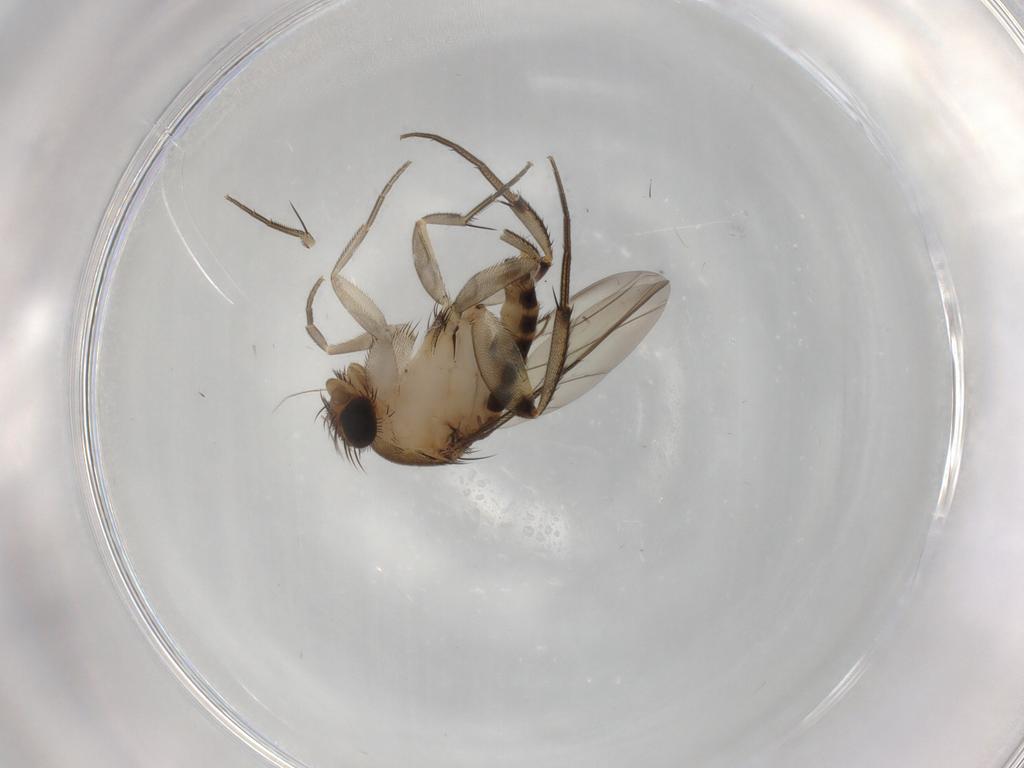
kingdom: Animalia
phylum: Arthropoda
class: Insecta
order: Diptera
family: Phoridae
